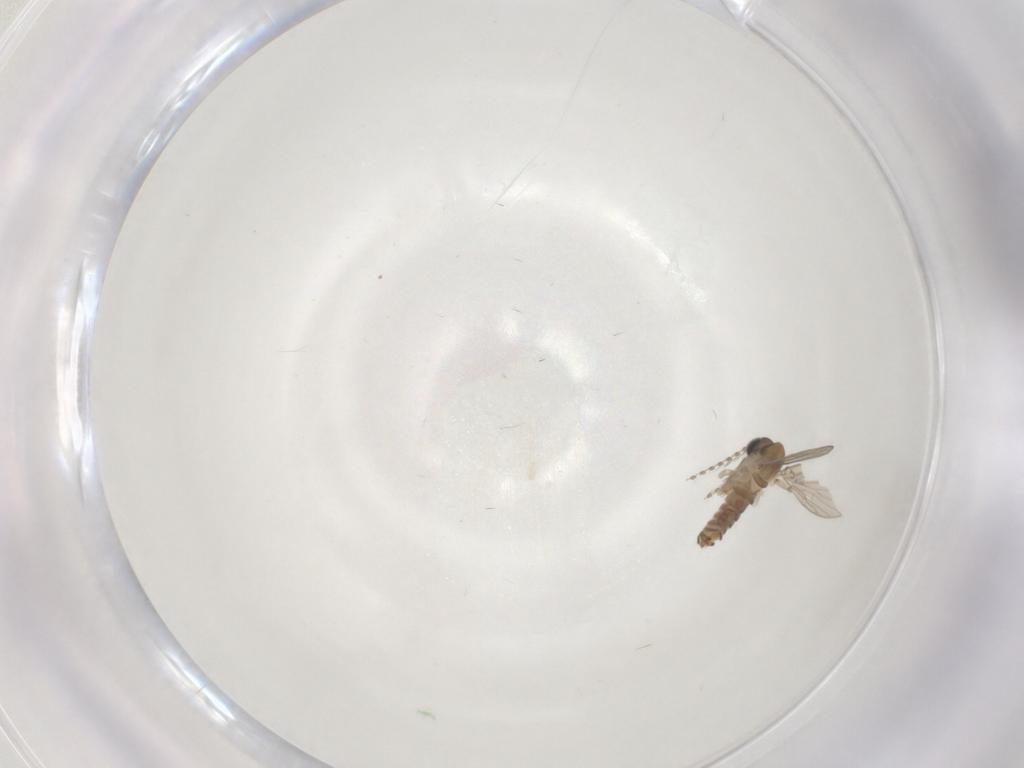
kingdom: Animalia
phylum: Arthropoda
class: Insecta
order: Diptera
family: Psychodidae
